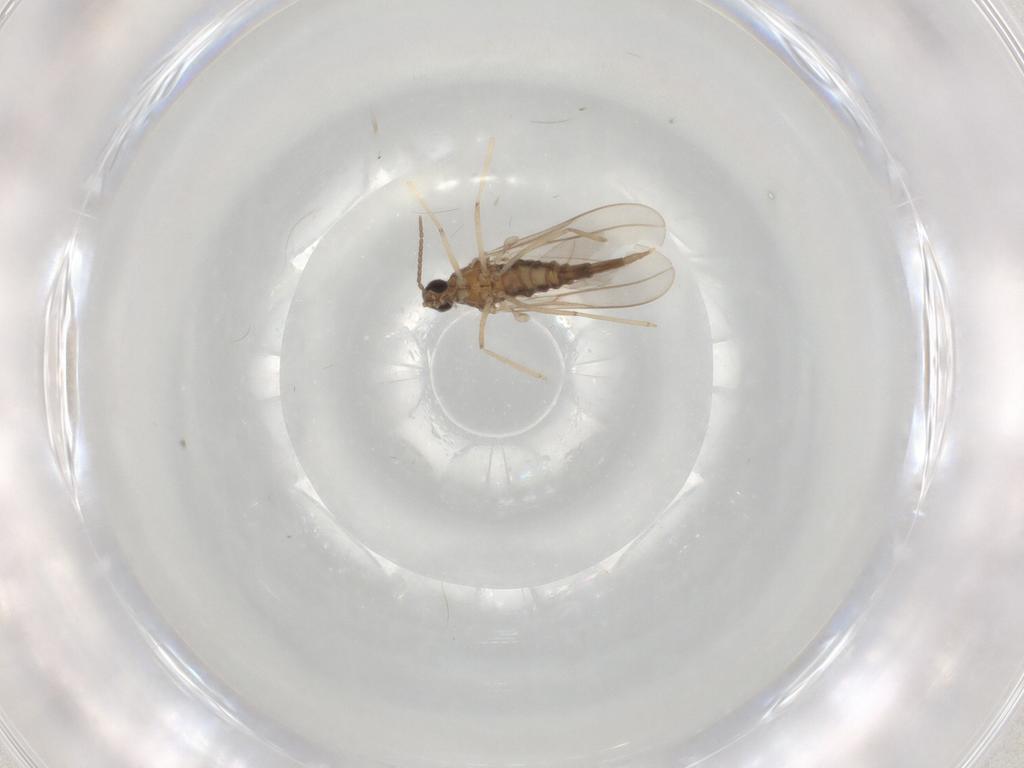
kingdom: Animalia
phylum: Arthropoda
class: Insecta
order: Diptera
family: Cecidomyiidae
